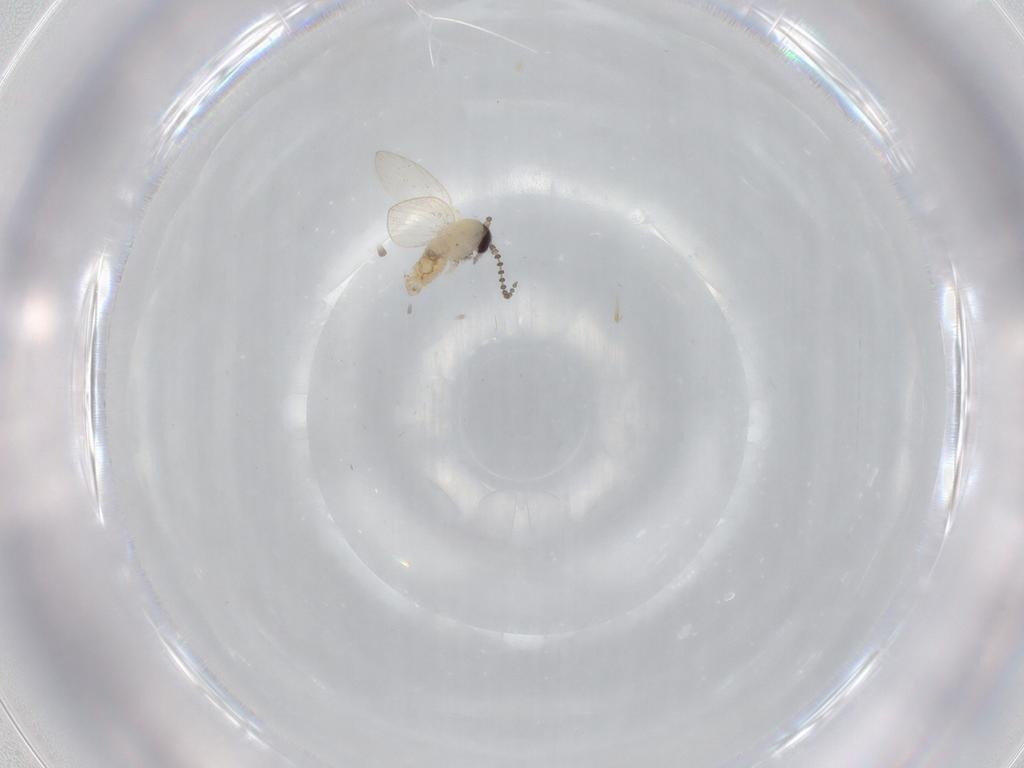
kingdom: Animalia
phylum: Arthropoda
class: Insecta
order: Diptera
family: Psychodidae
